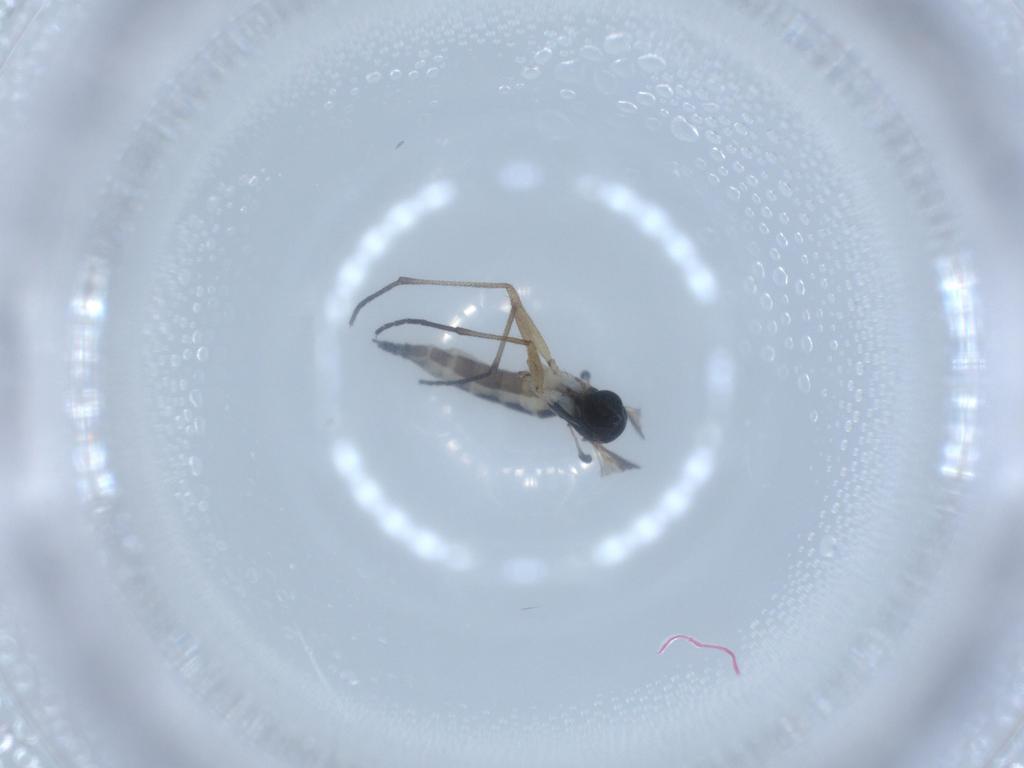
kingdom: Animalia
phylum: Arthropoda
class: Insecta
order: Diptera
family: Sciaridae
